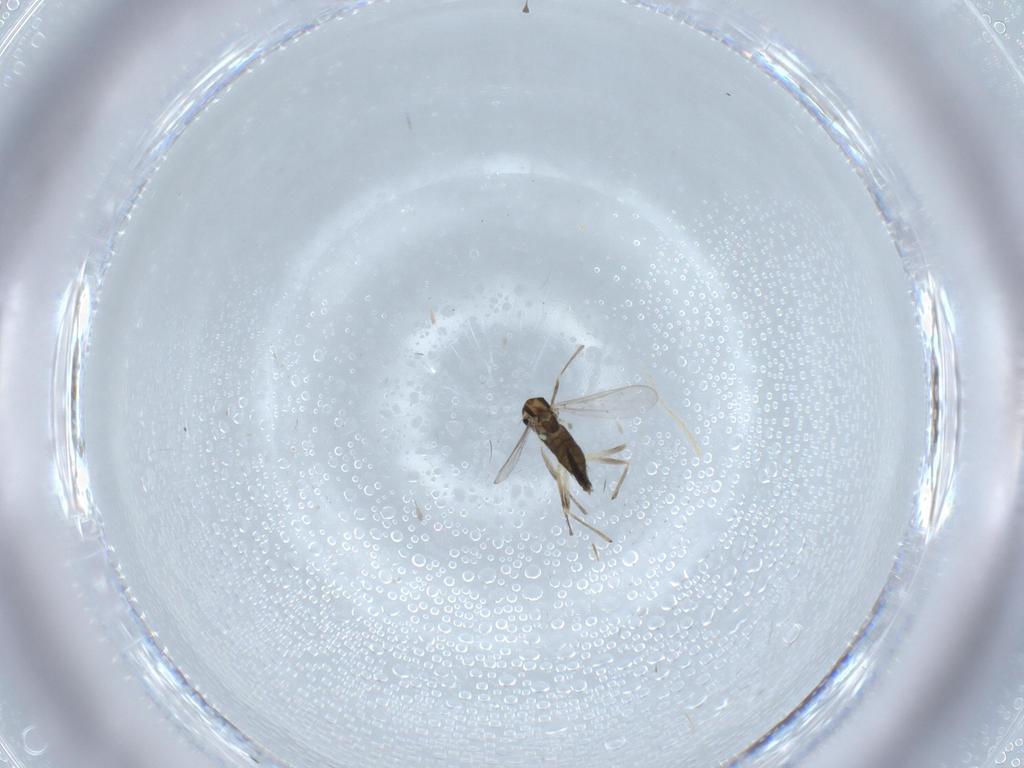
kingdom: Animalia
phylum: Arthropoda
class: Insecta
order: Diptera
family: Chironomidae
